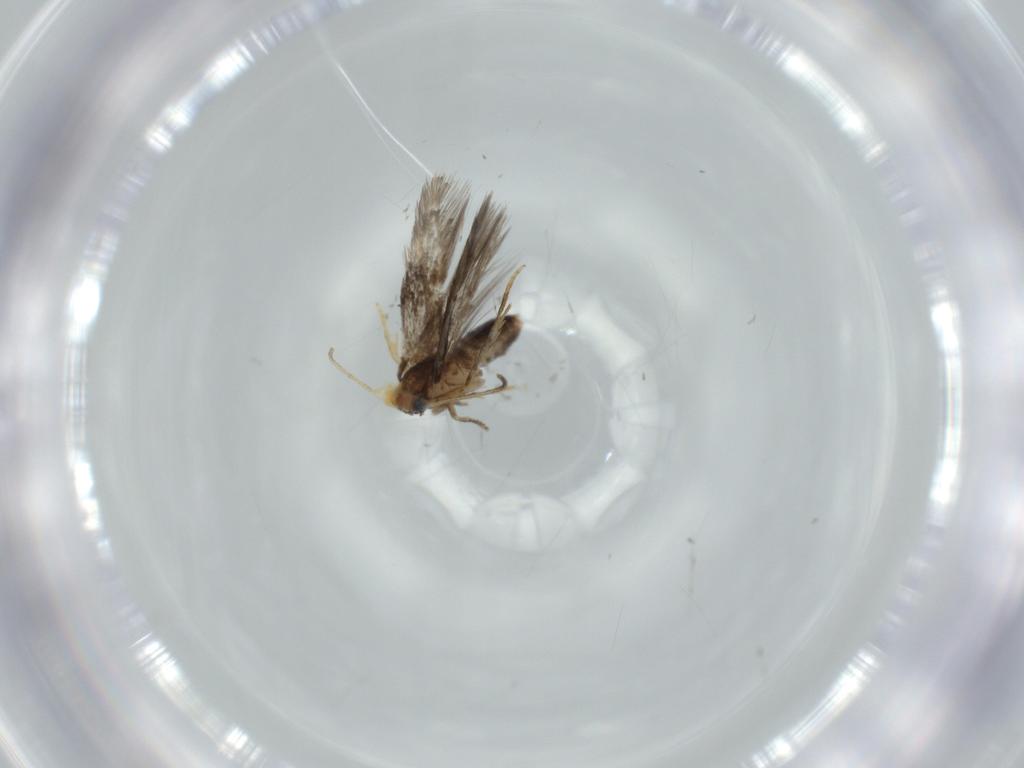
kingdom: Animalia
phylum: Arthropoda
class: Insecta
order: Lepidoptera
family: Nepticulidae
